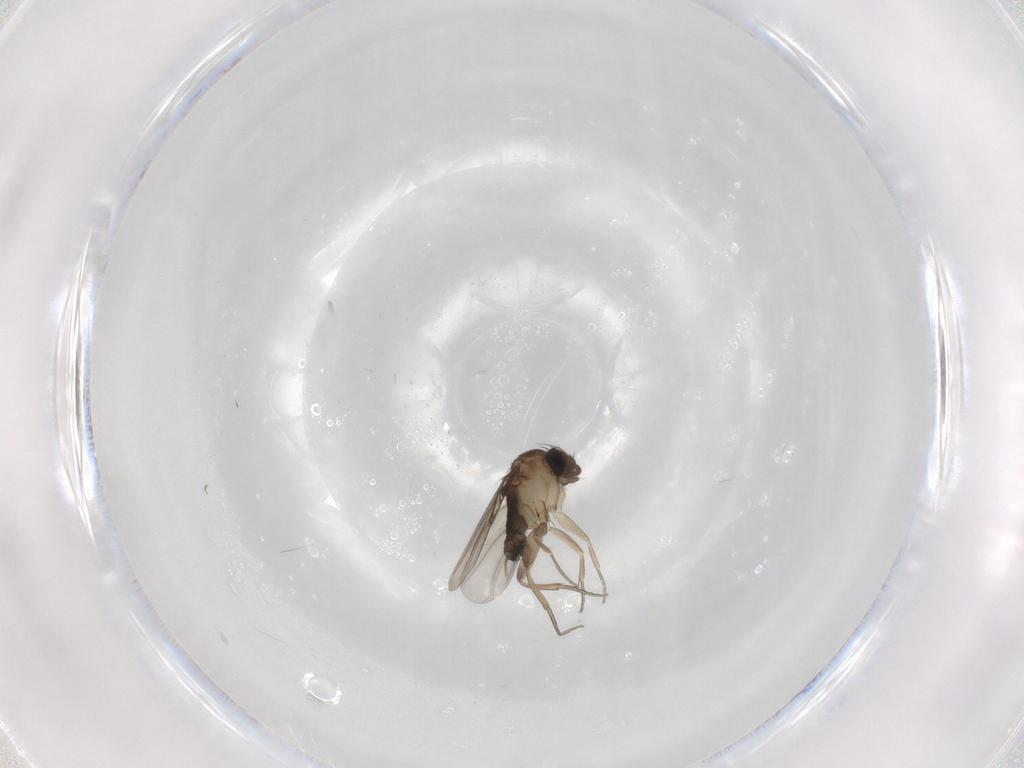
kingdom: Animalia
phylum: Arthropoda
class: Insecta
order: Diptera
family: Phoridae
